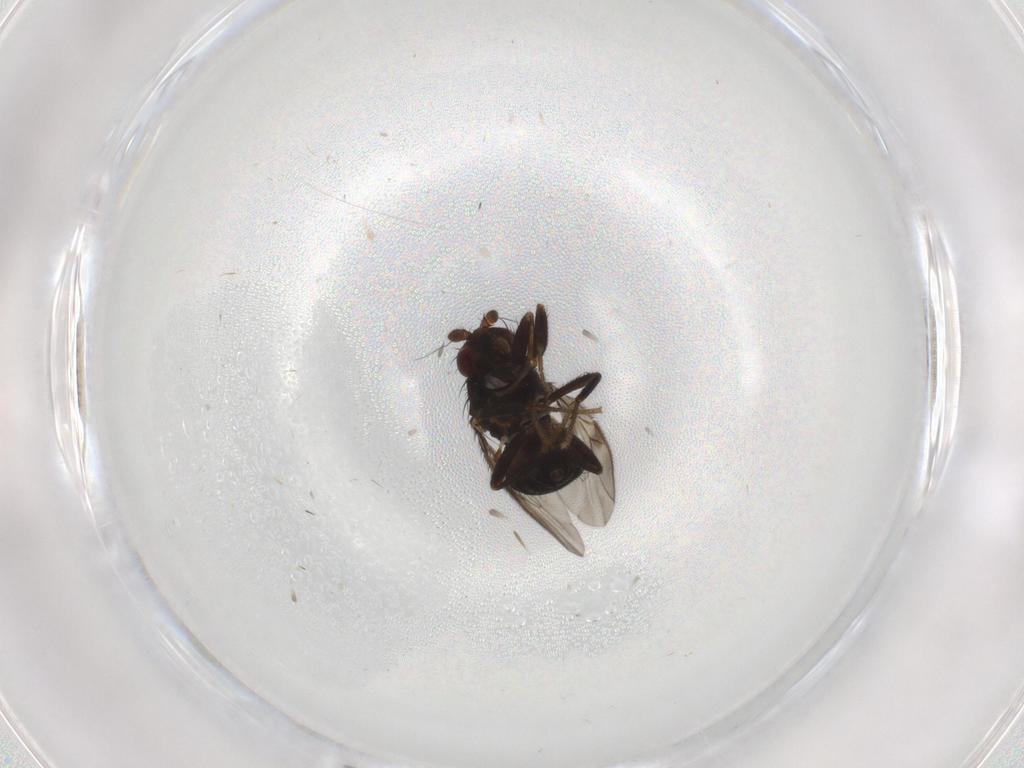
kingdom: Animalia
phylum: Arthropoda
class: Insecta
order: Diptera
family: Sphaeroceridae
